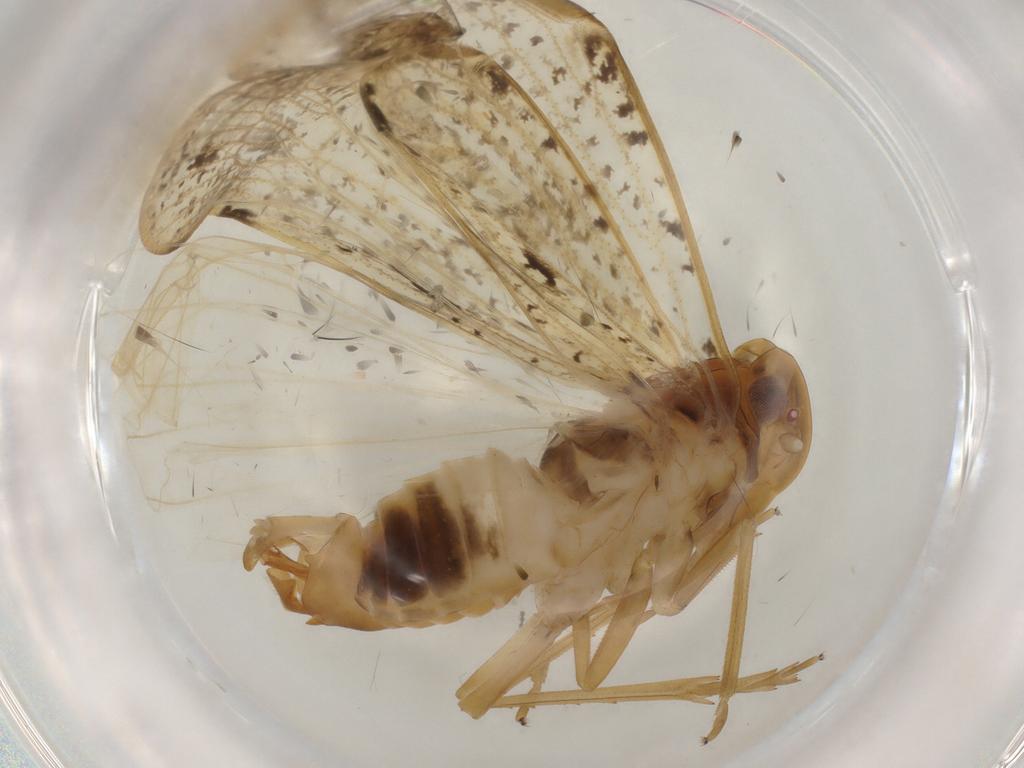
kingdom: Animalia
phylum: Arthropoda
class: Insecta
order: Hemiptera
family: Cixiidae
